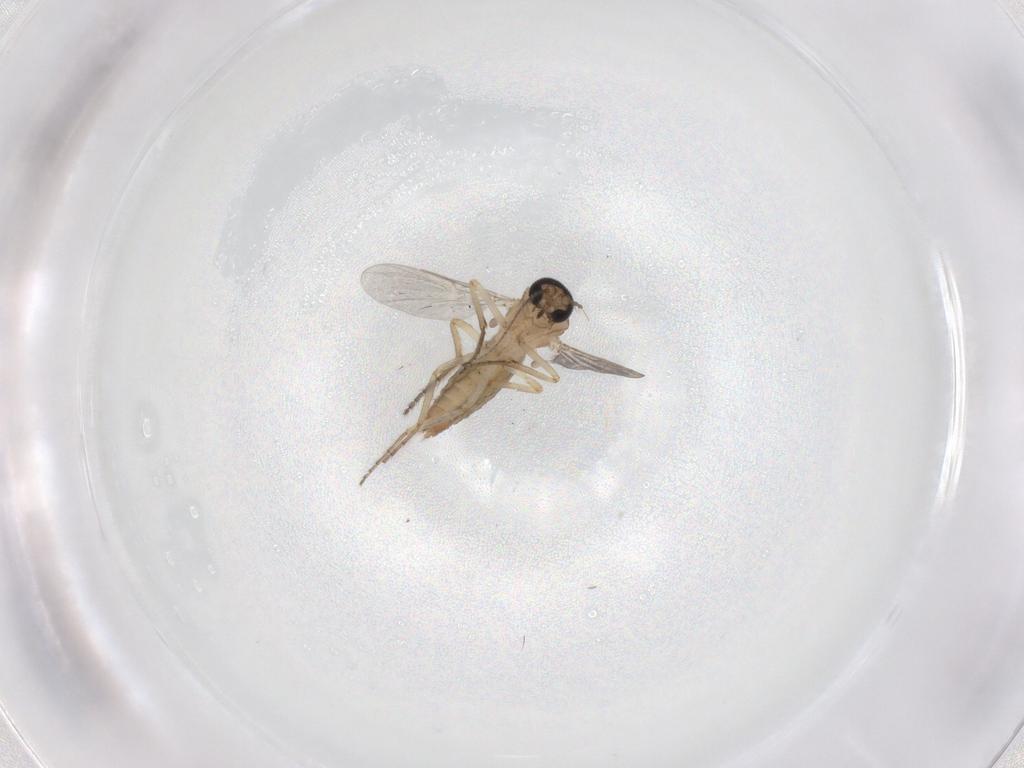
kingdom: Animalia
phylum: Arthropoda
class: Insecta
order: Diptera
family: Ceratopogonidae
